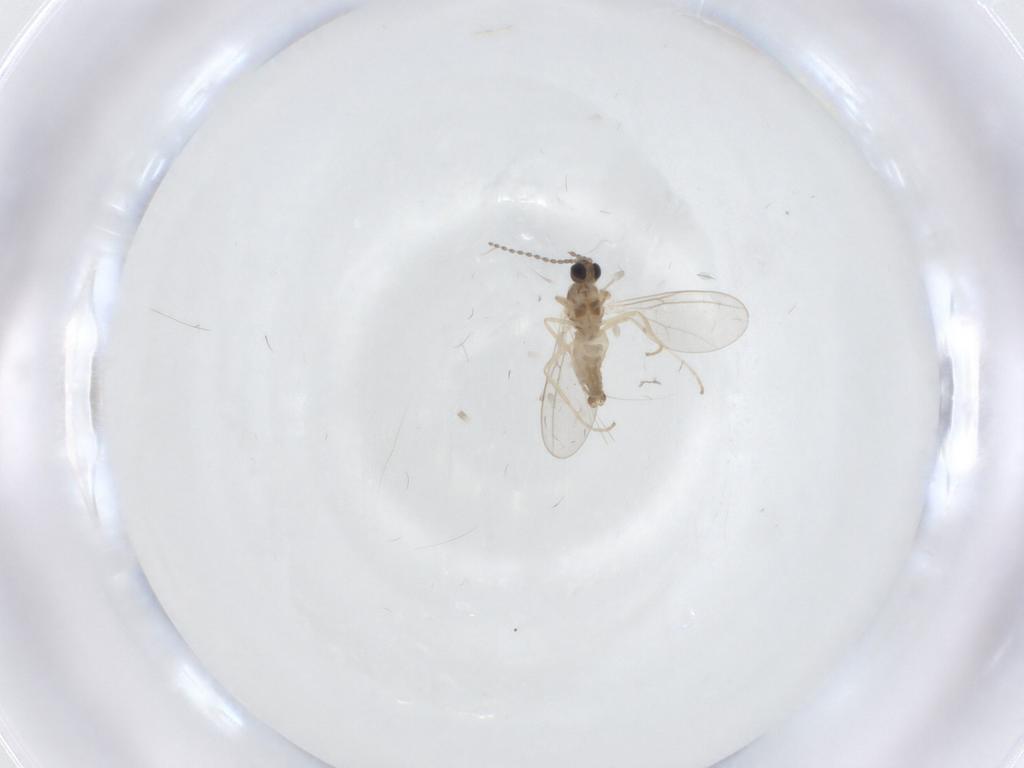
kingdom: Animalia
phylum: Arthropoda
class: Insecta
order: Diptera
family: Cecidomyiidae
